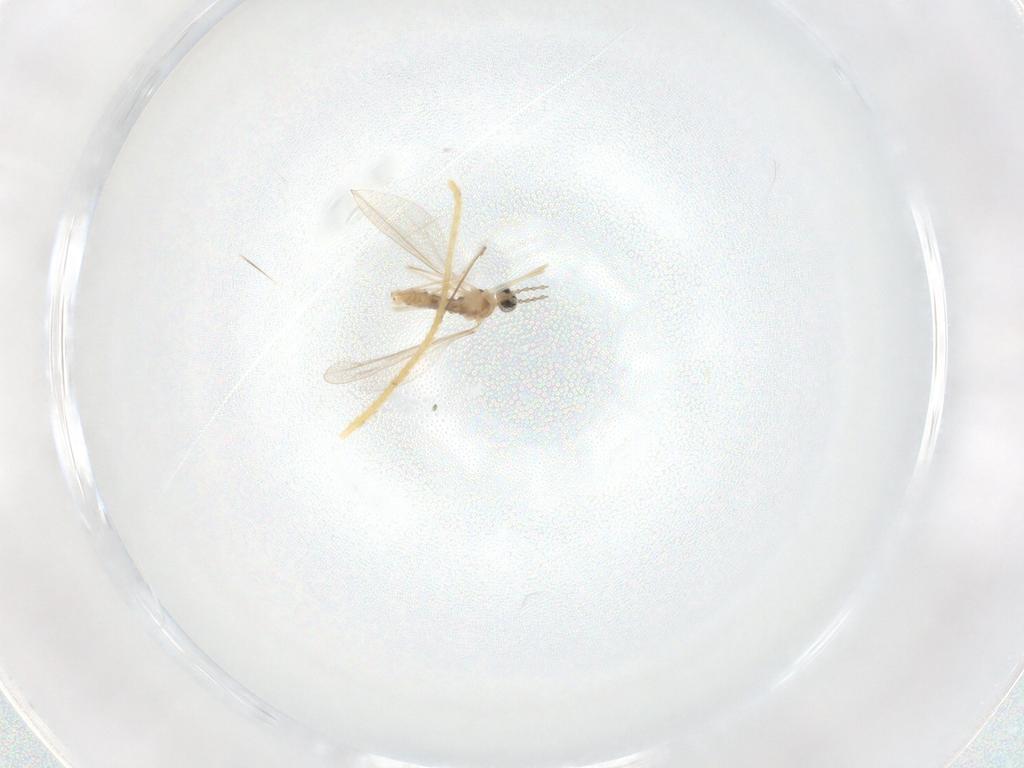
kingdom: Animalia
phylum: Arthropoda
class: Insecta
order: Diptera
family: Cecidomyiidae
